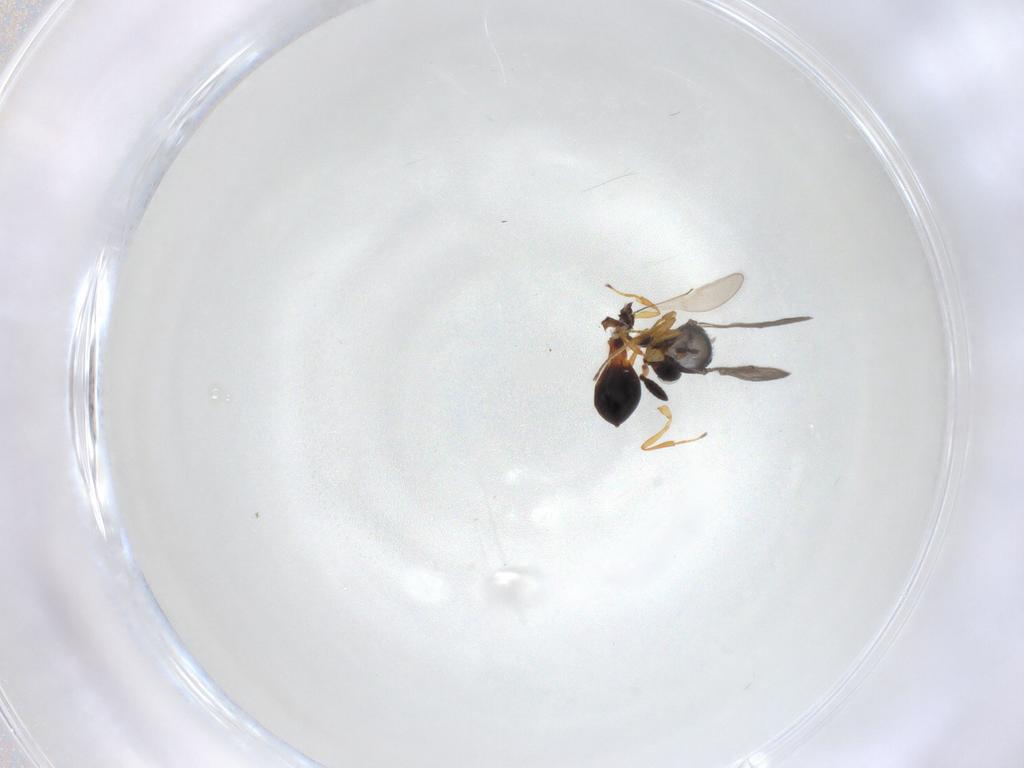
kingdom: Animalia
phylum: Arthropoda
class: Insecta
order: Hymenoptera
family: Scelionidae
